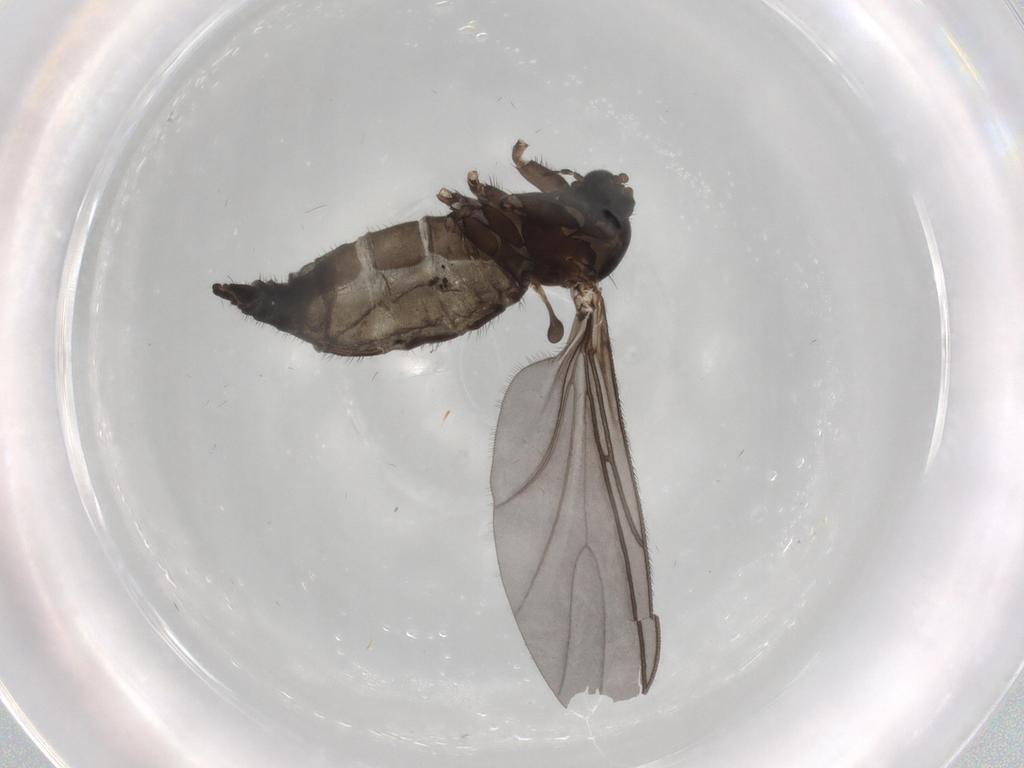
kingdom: Animalia
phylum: Arthropoda
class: Insecta
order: Diptera
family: Sciaridae
